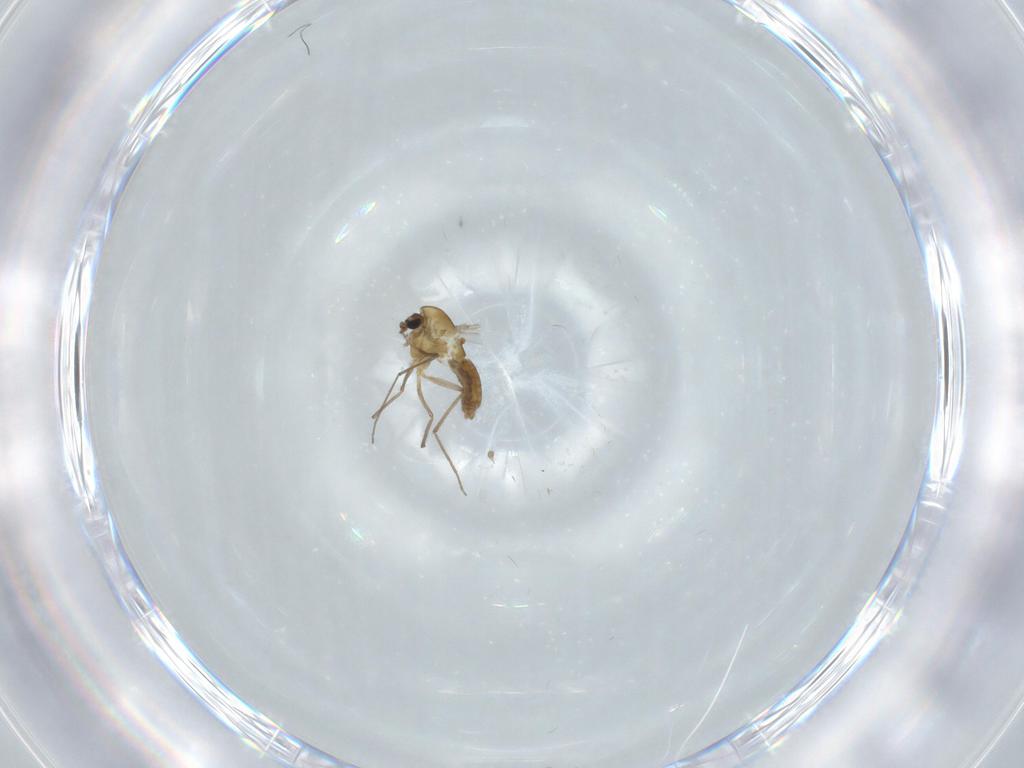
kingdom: Animalia
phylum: Arthropoda
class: Insecta
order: Diptera
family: Chironomidae
